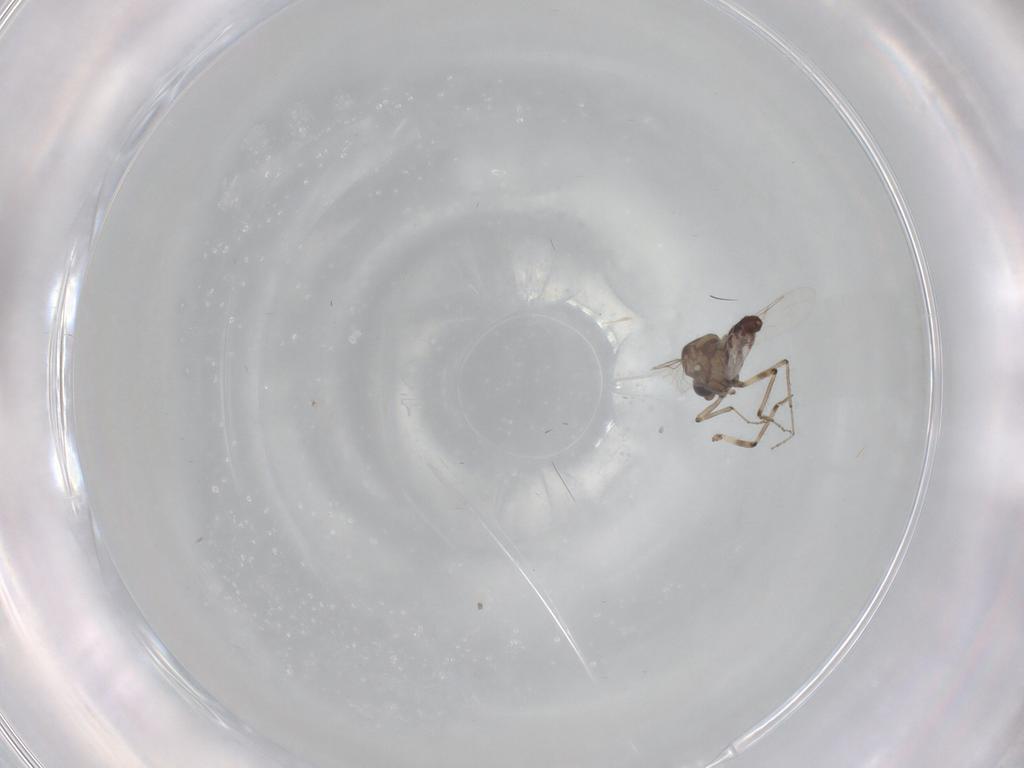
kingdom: Animalia
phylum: Arthropoda
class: Insecta
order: Diptera
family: Ceratopogonidae
